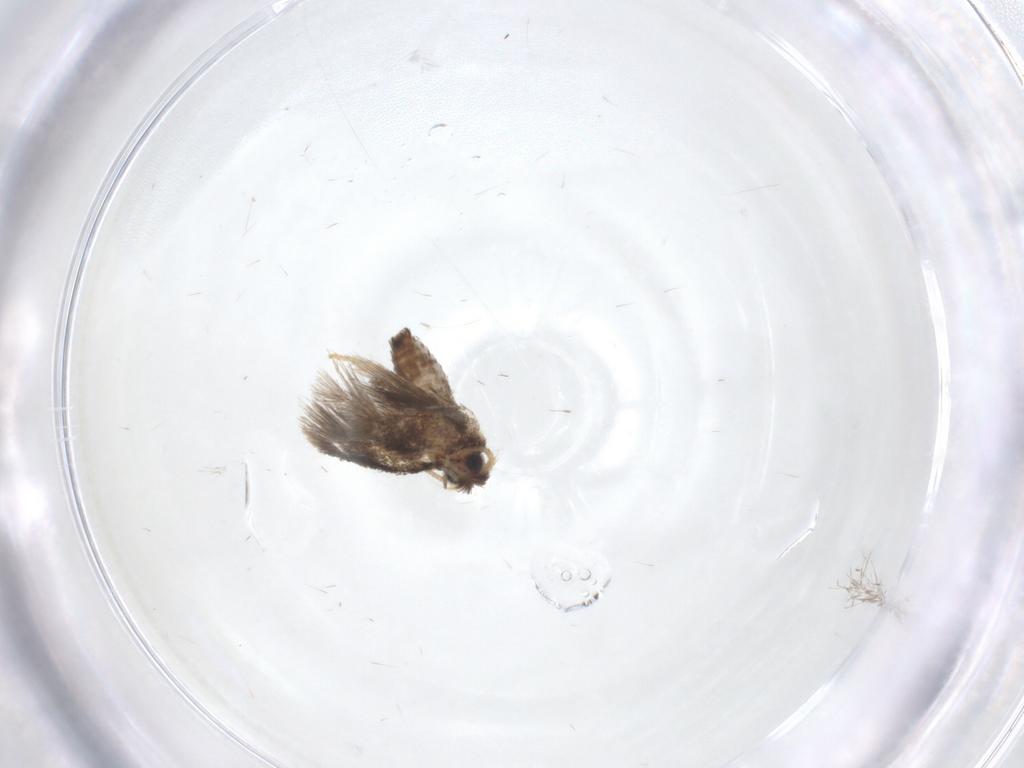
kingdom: Animalia
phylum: Arthropoda
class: Insecta
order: Lepidoptera
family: Nepticulidae
